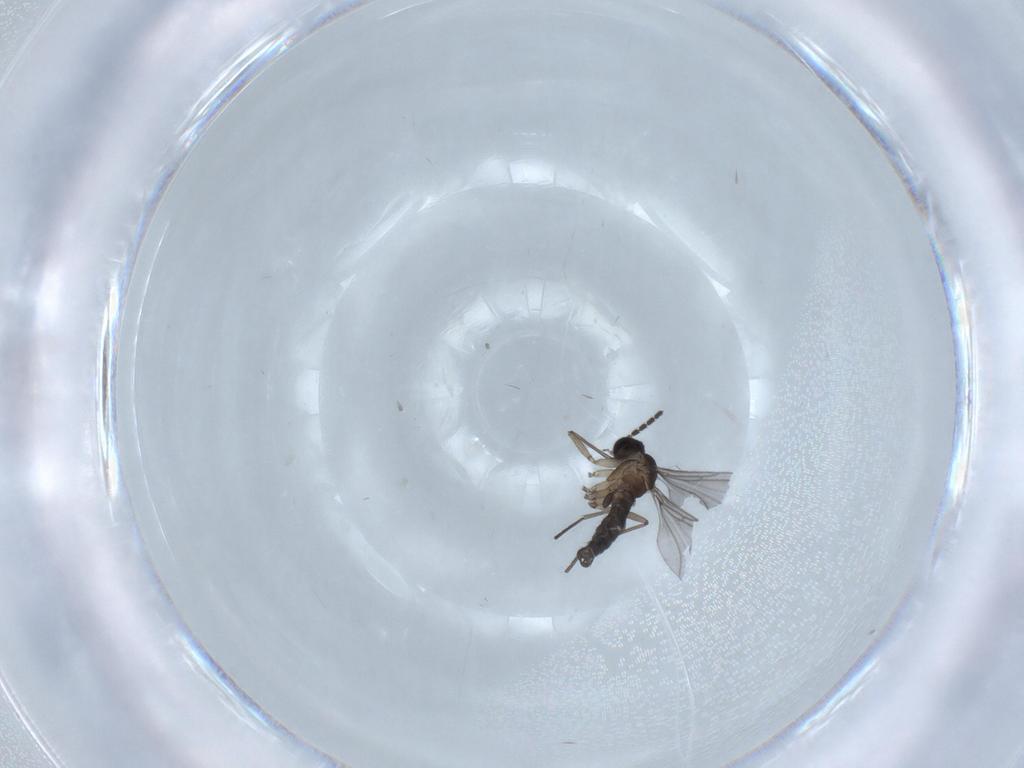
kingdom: Animalia
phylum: Arthropoda
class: Insecta
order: Diptera
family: Sciaridae
